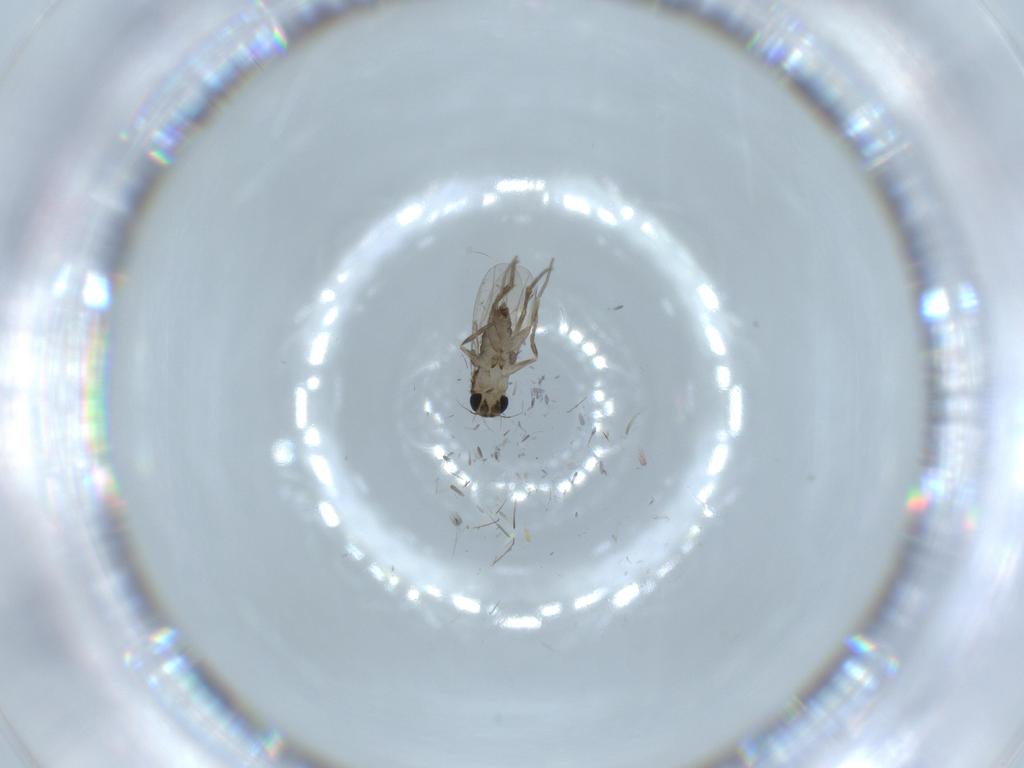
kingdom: Animalia
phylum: Arthropoda
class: Insecta
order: Diptera
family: Phoridae
